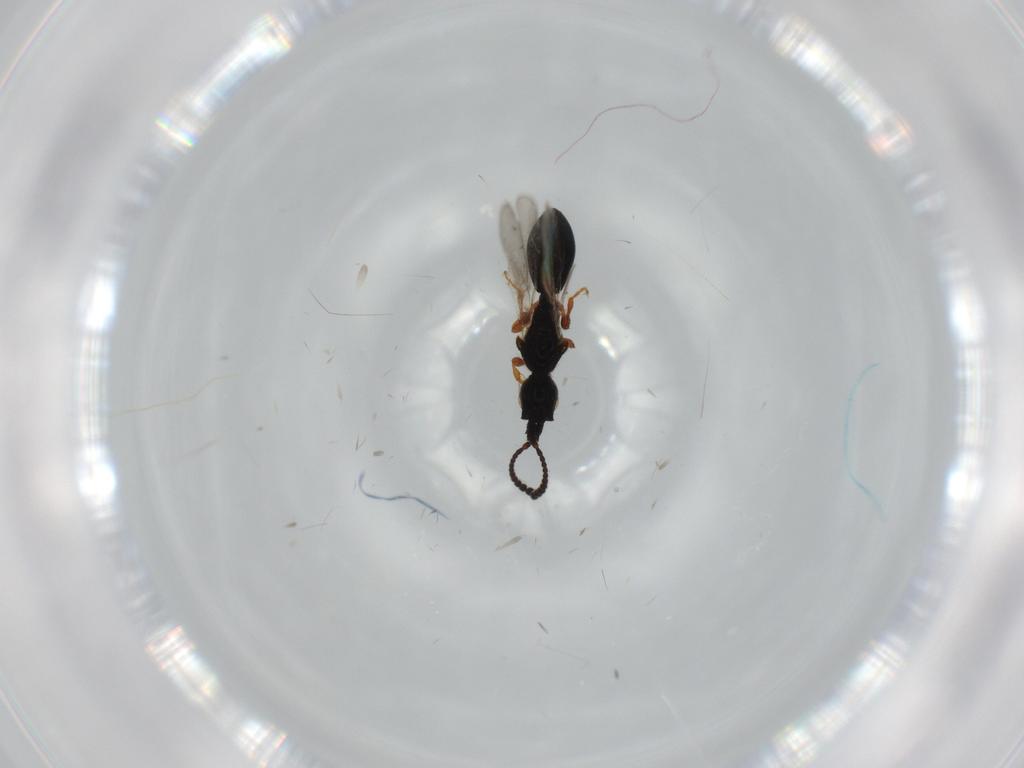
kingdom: Animalia
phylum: Arthropoda
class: Insecta
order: Hymenoptera
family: Diapriidae
